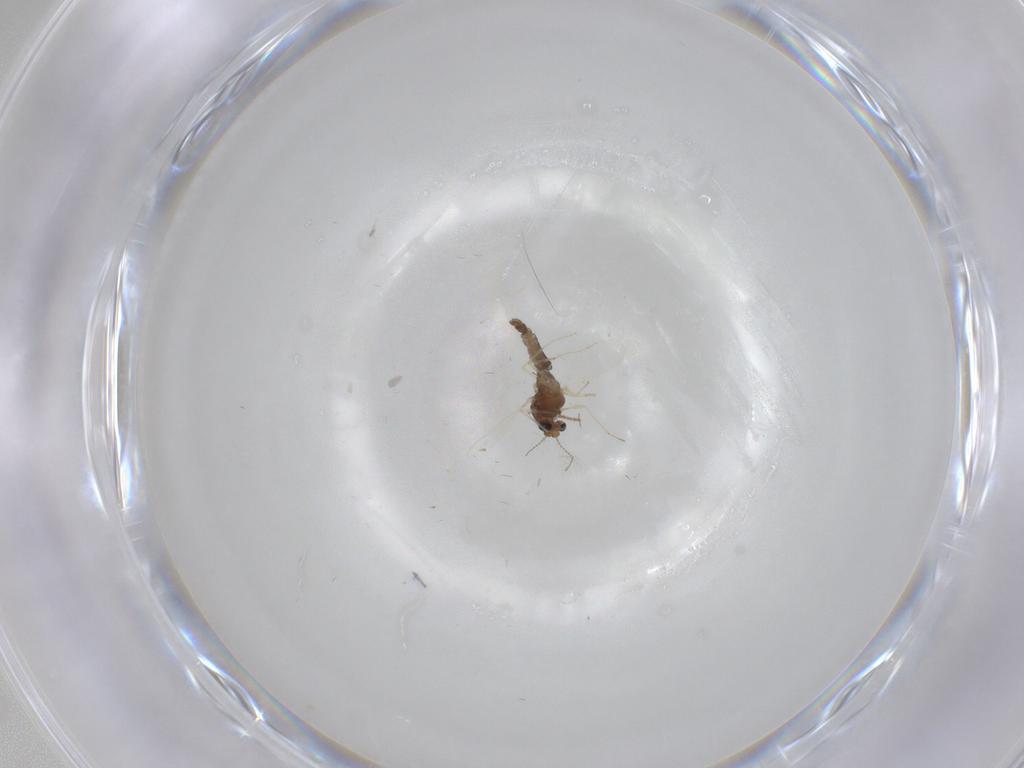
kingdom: Animalia
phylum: Arthropoda
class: Insecta
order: Diptera
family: Chironomidae
